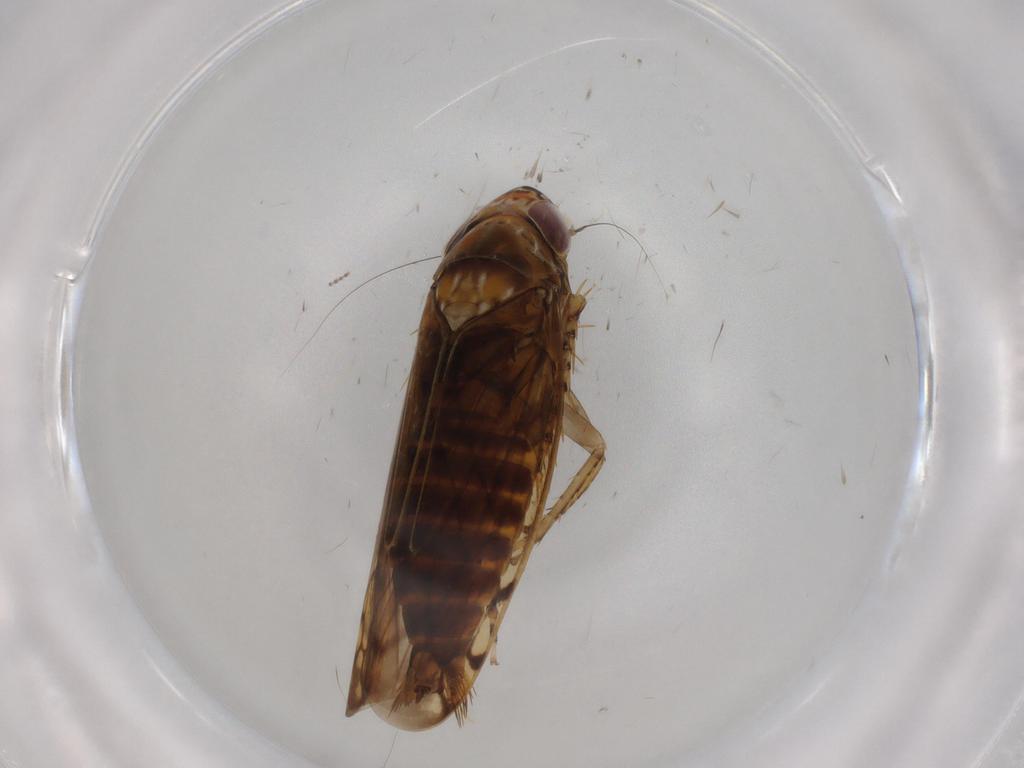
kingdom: Animalia
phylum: Arthropoda
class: Insecta
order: Hemiptera
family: Cicadellidae
